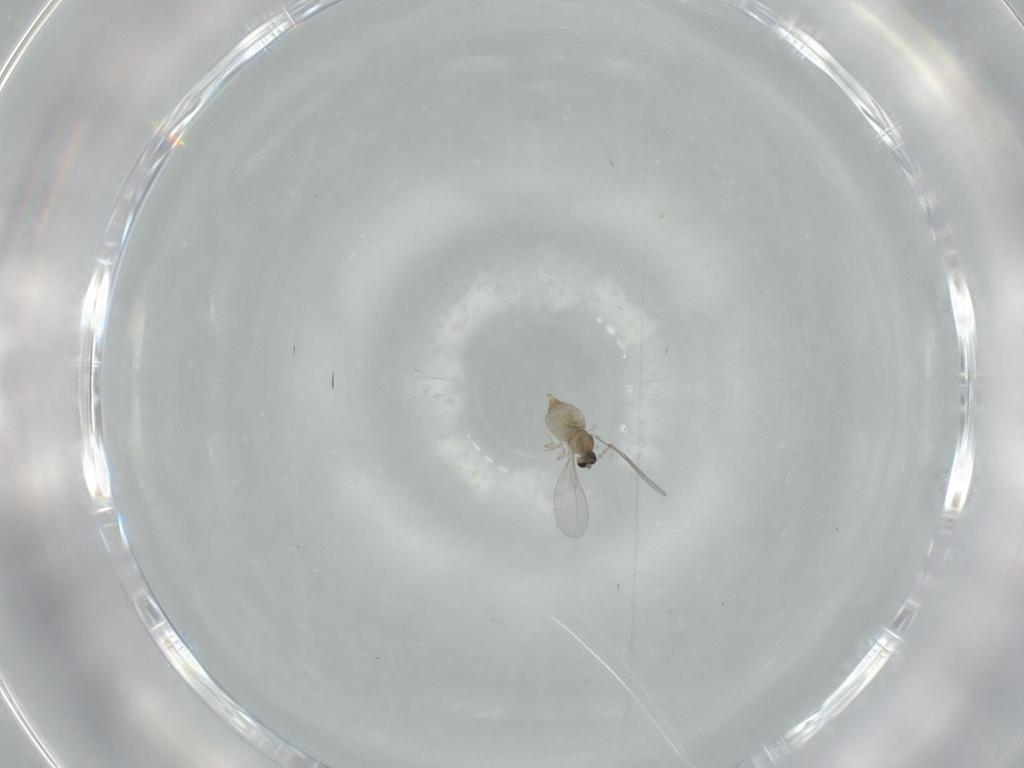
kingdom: Animalia
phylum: Arthropoda
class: Insecta
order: Diptera
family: Cecidomyiidae
